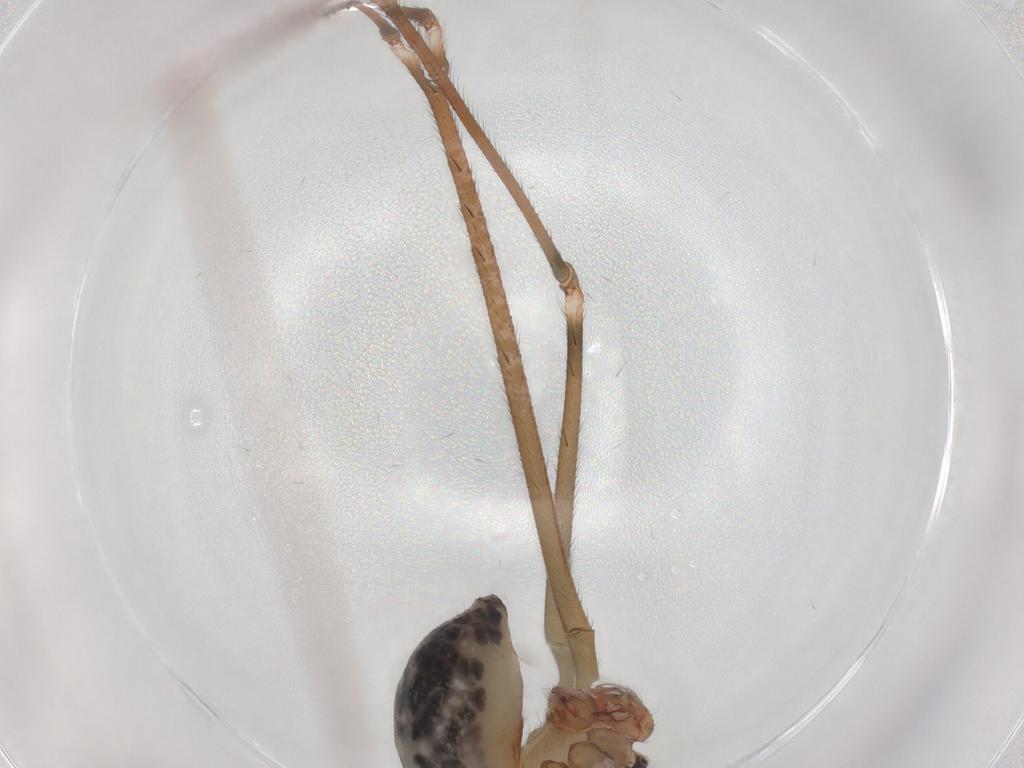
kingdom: Animalia
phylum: Arthropoda
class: Arachnida
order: Araneae
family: Pholcidae
